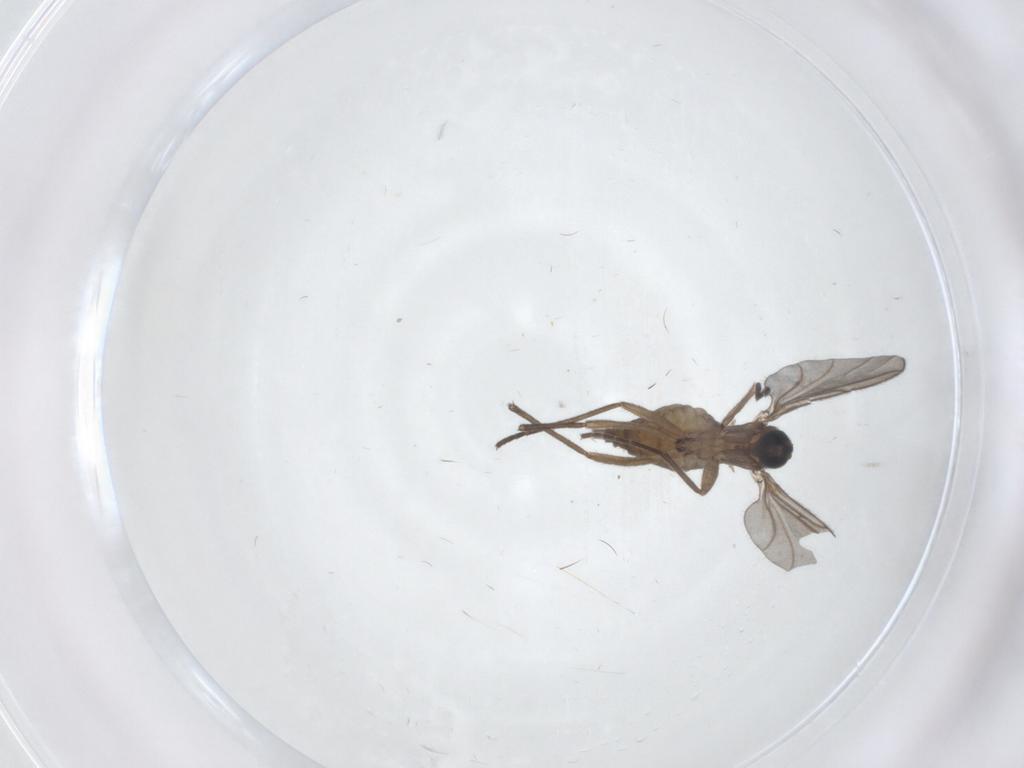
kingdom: Animalia
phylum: Arthropoda
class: Insecta
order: Diptera
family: Sciaridae
